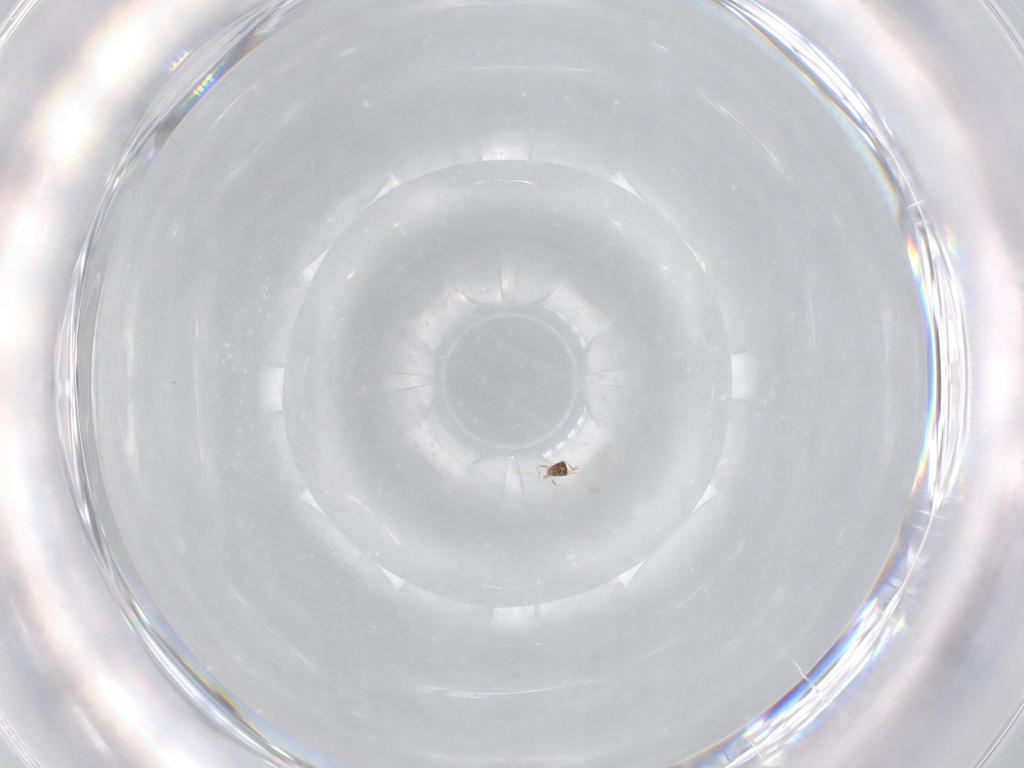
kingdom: Animalia
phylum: Arthropoda
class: Insecta
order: Hymenoptera
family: Mymaridae
